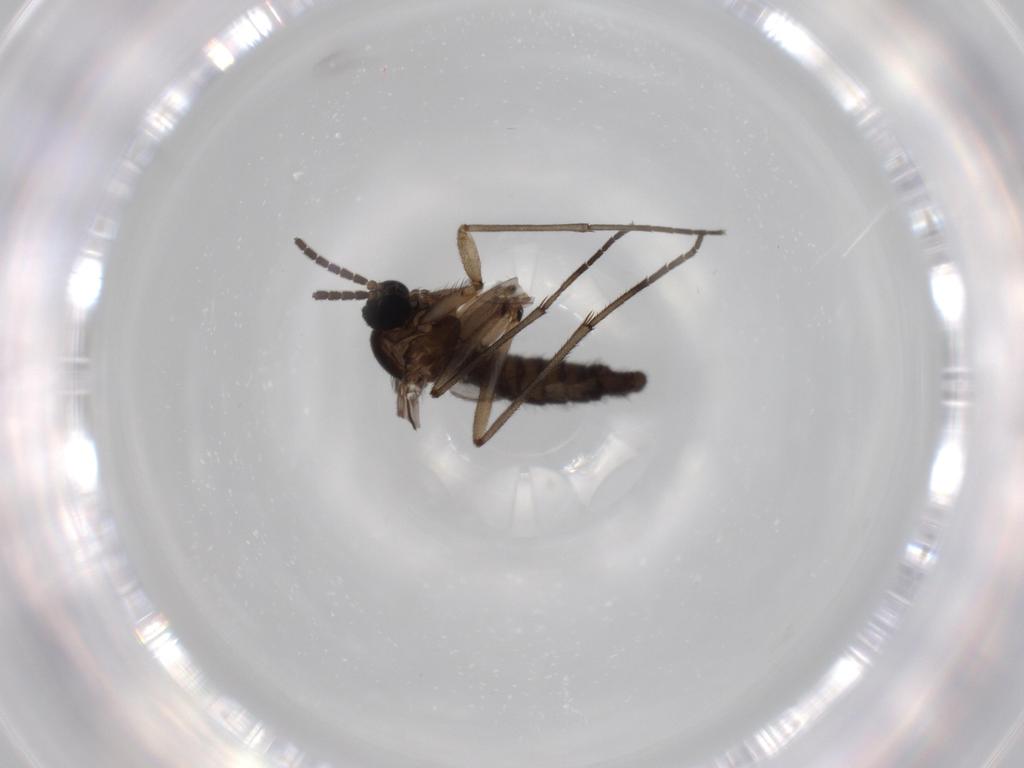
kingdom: Animalia
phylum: Arthropoda
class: Insecta
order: Diptera
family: Sciaridae
